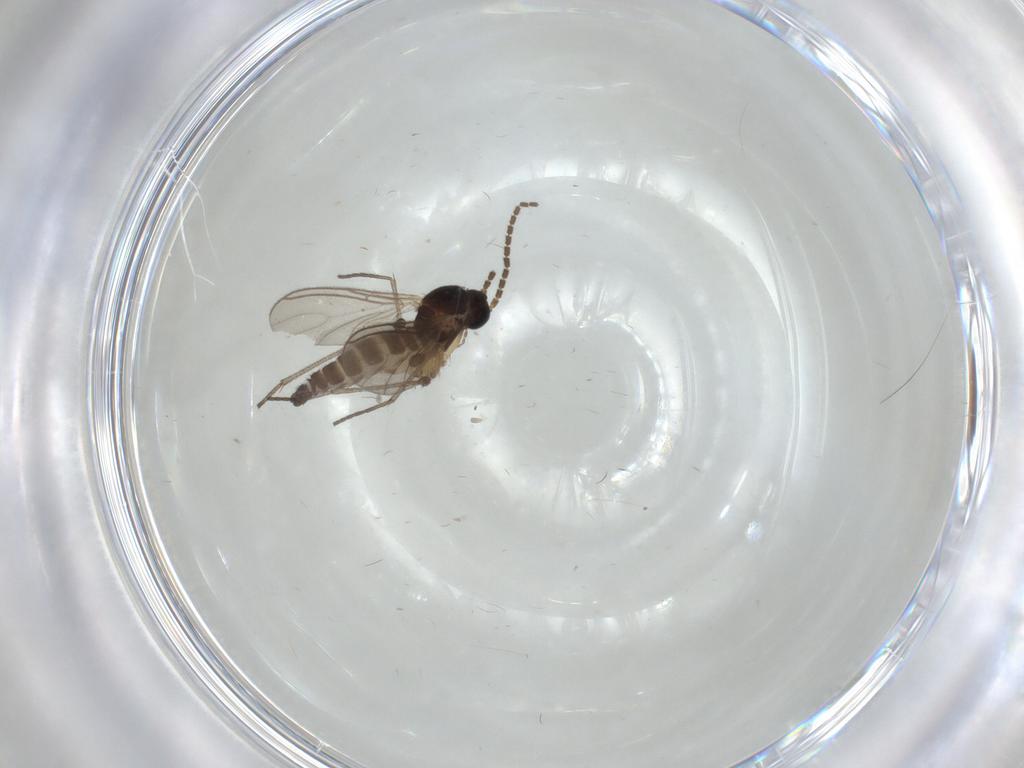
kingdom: Animalia
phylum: Arthropoda
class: Insecta
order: Diptera
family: Sciaridae
